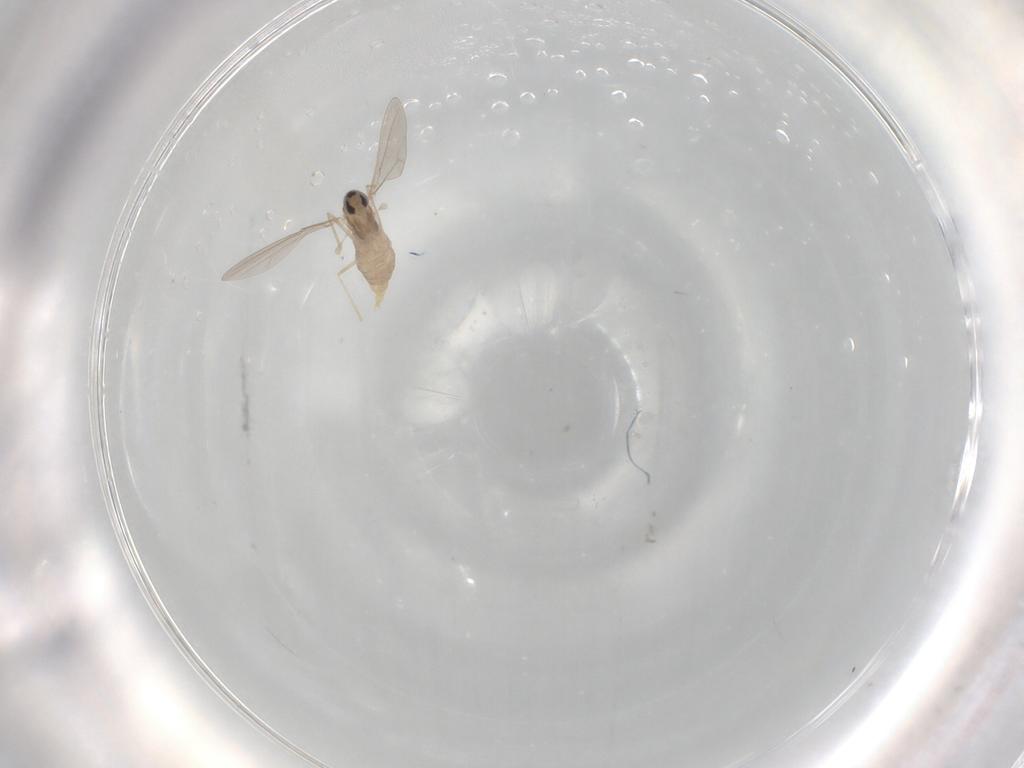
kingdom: Animalia
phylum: Arthropoda
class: Insecta
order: Diptera
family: Cecidomyiidae
